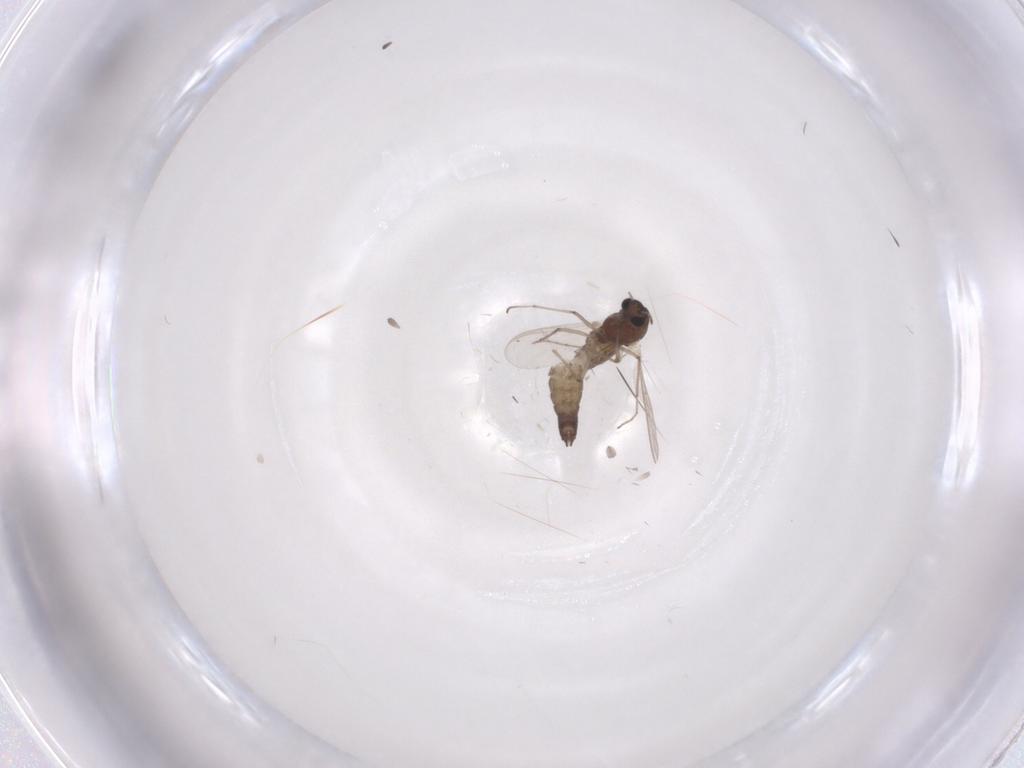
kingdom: Animalia
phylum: Arthropoda
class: Insecta
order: Diptera
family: Chironomidae
